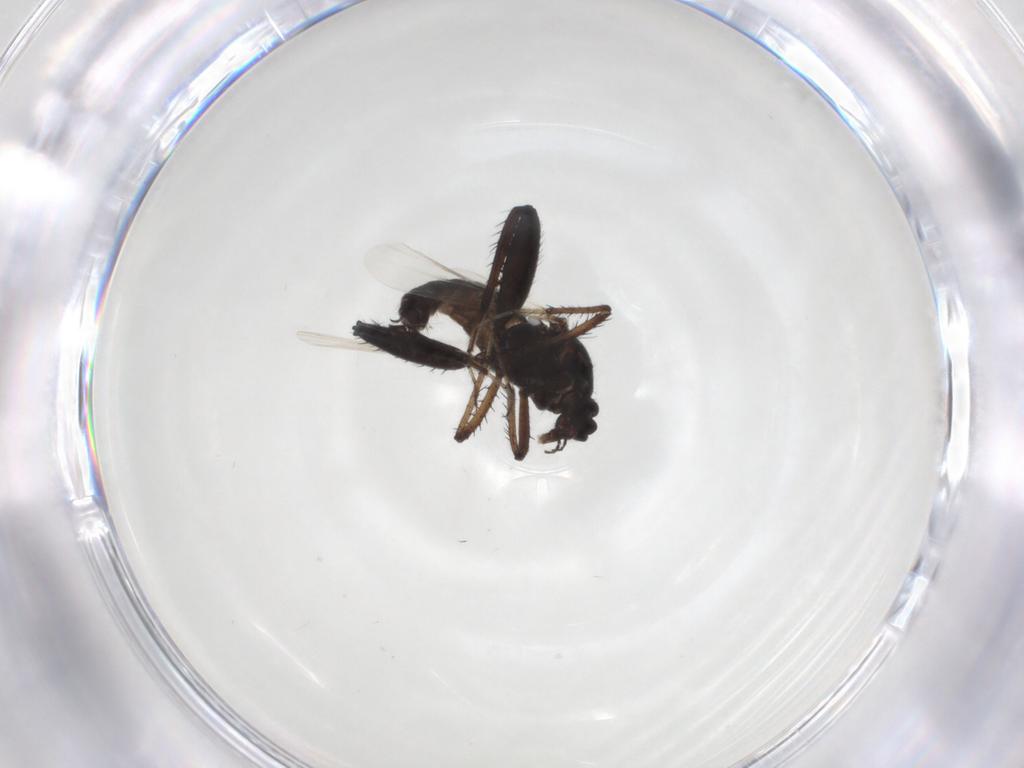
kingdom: Animalia
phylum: Arthropoda
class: Insecta
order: Diptera
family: Ceratopogonidae
